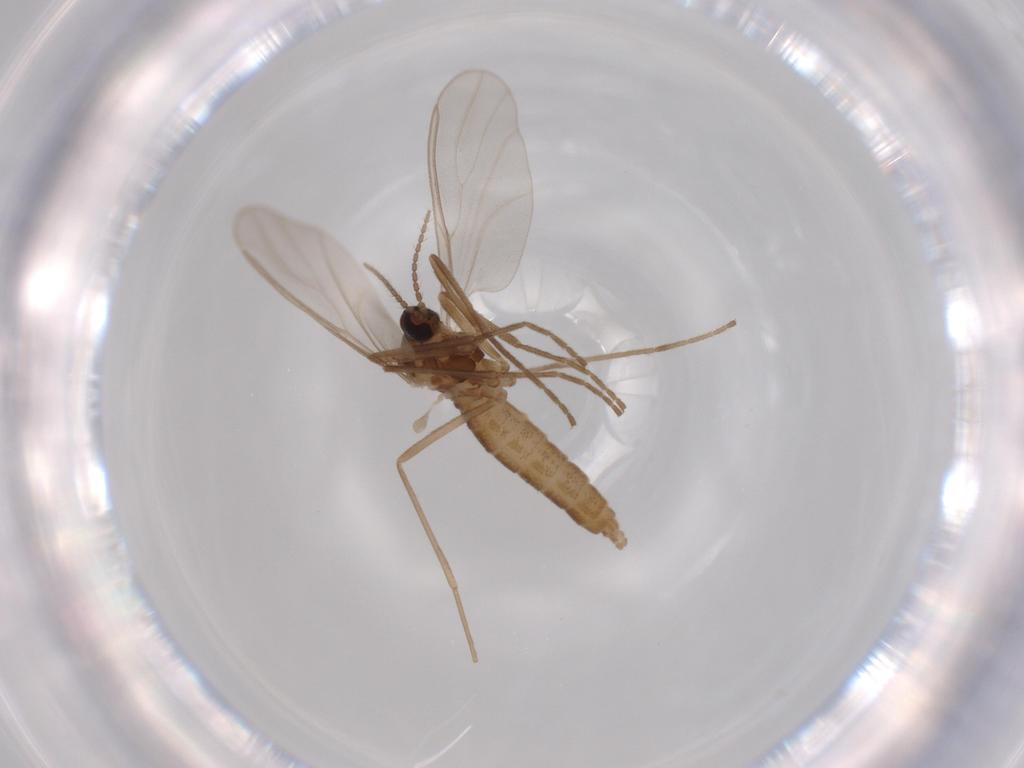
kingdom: Animalia
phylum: Arthropoda
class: Insecta
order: Diptera
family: Cecidomyiidae
